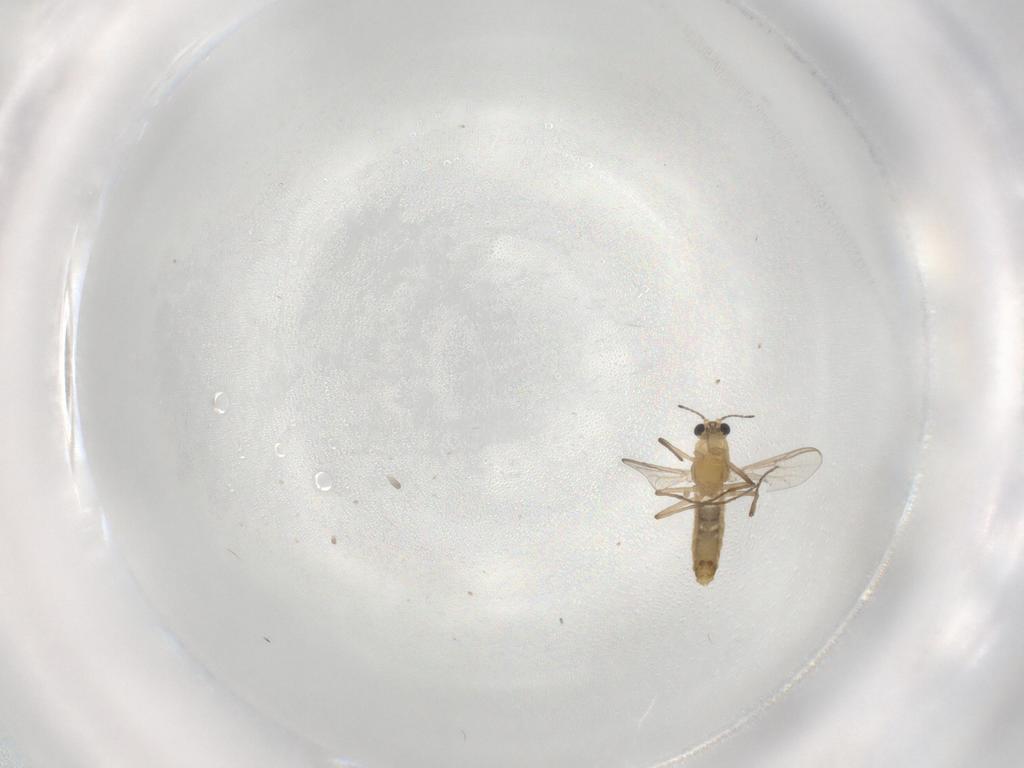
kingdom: Animalia
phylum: Arthropoda
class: Insecta
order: Diptera
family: Chironomidae
